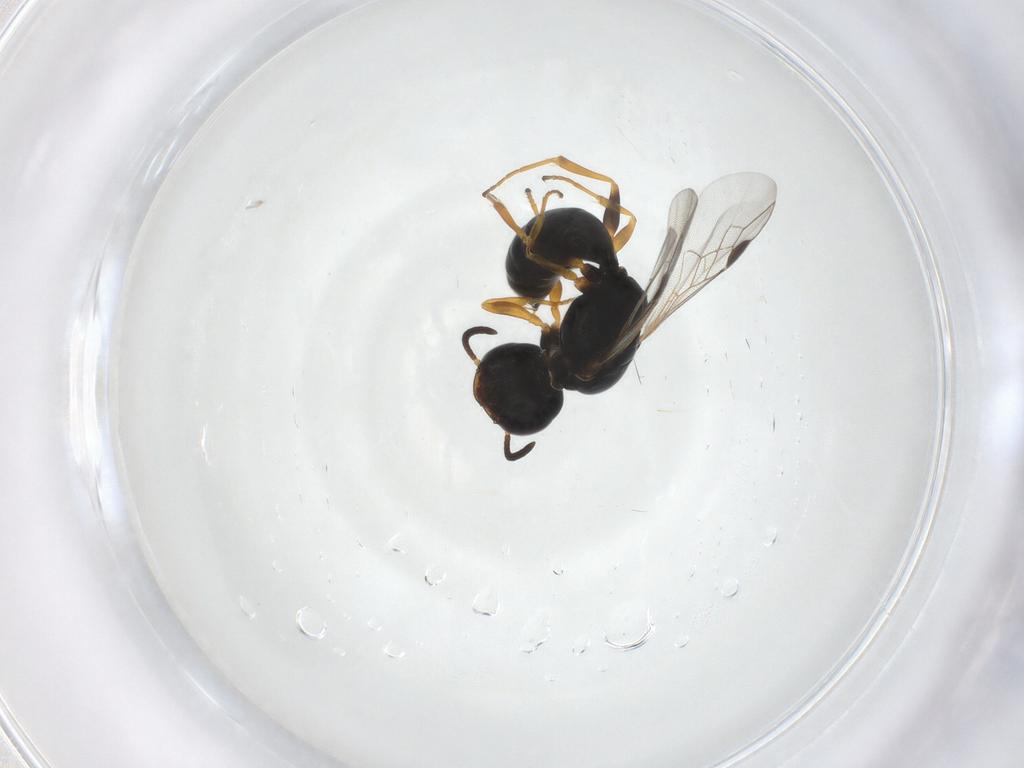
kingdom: Animalia
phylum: Arthropoda
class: Insecta
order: Hymenoptera
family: Crabronidae
